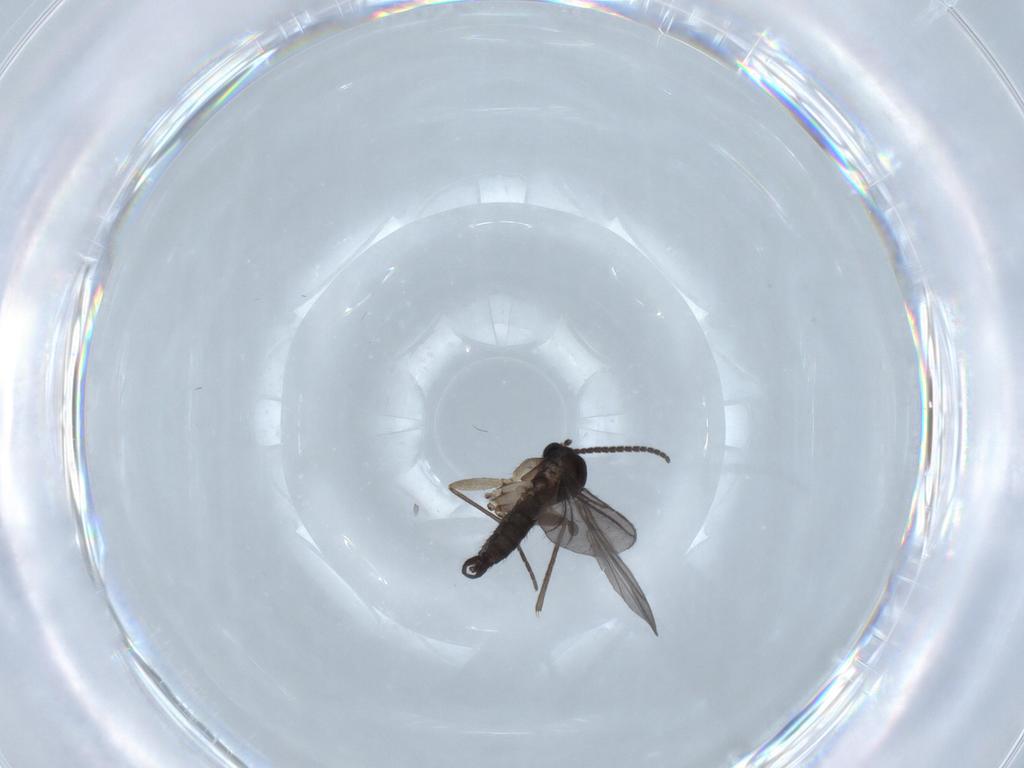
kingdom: Animalia
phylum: Arthropoda
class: Insecta
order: Diptera
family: Sciaridae
